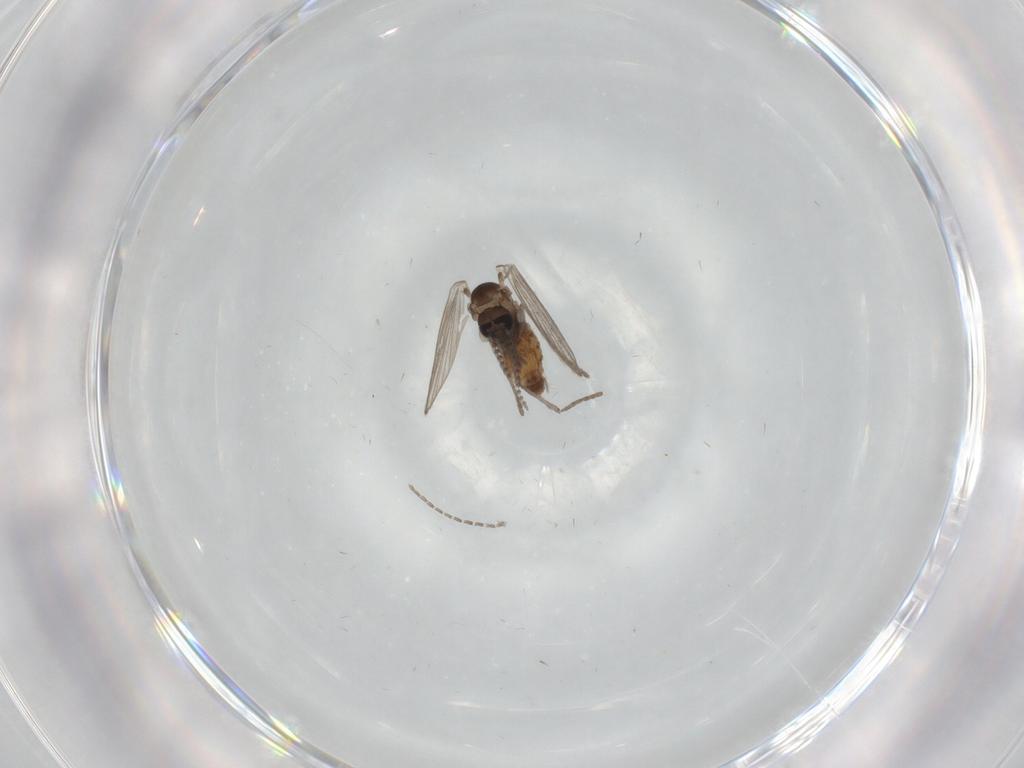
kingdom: Animalia
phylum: Arthropoda
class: Insecta
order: Diptera
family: Psychodidae
